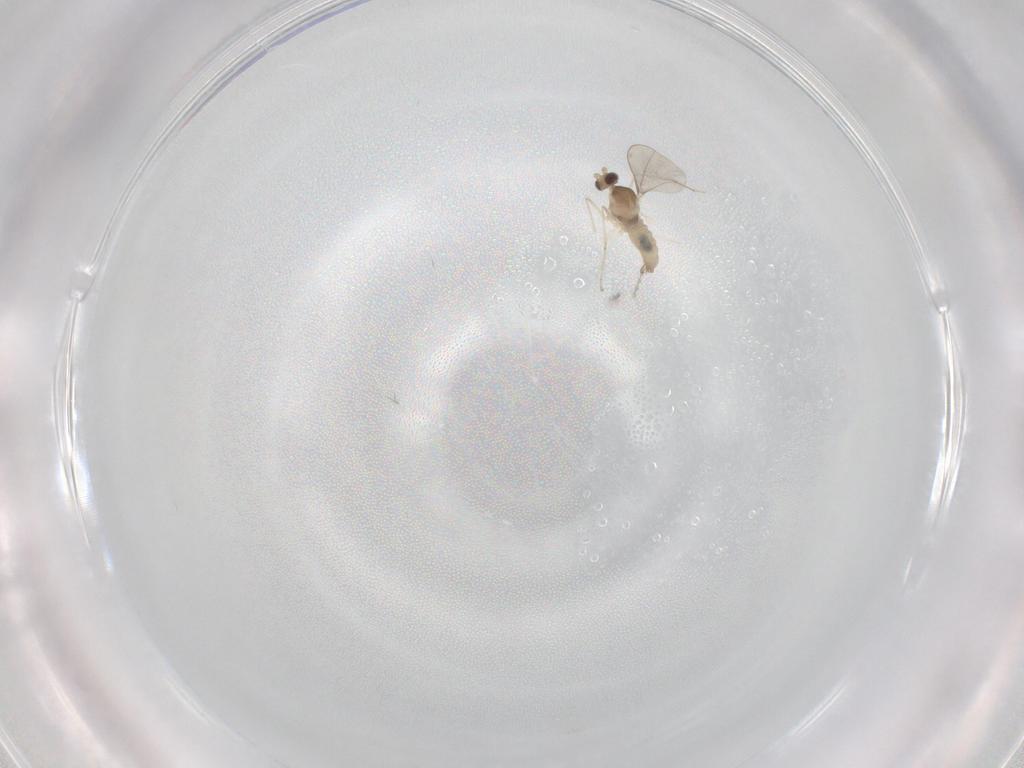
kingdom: Animalia
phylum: Arthropoda
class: Insecta
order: Diptera
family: Cecidomyiidae
